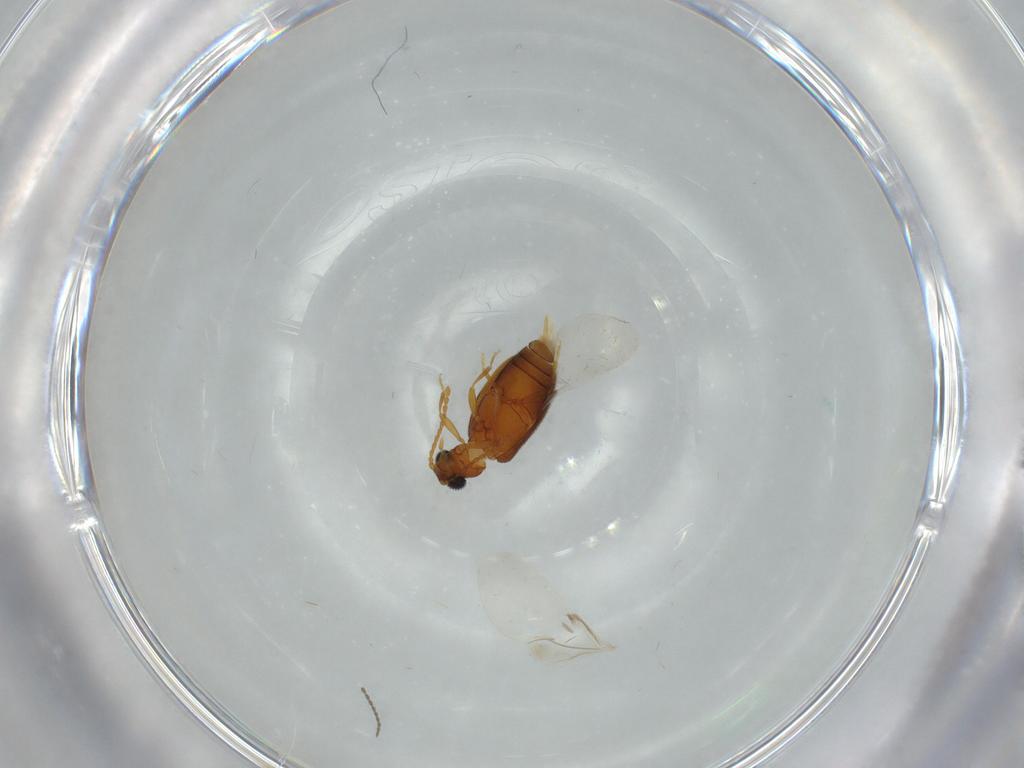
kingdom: Animalia
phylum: Arthropoda
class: Insecta
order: Coleoptera
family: Aderidae
